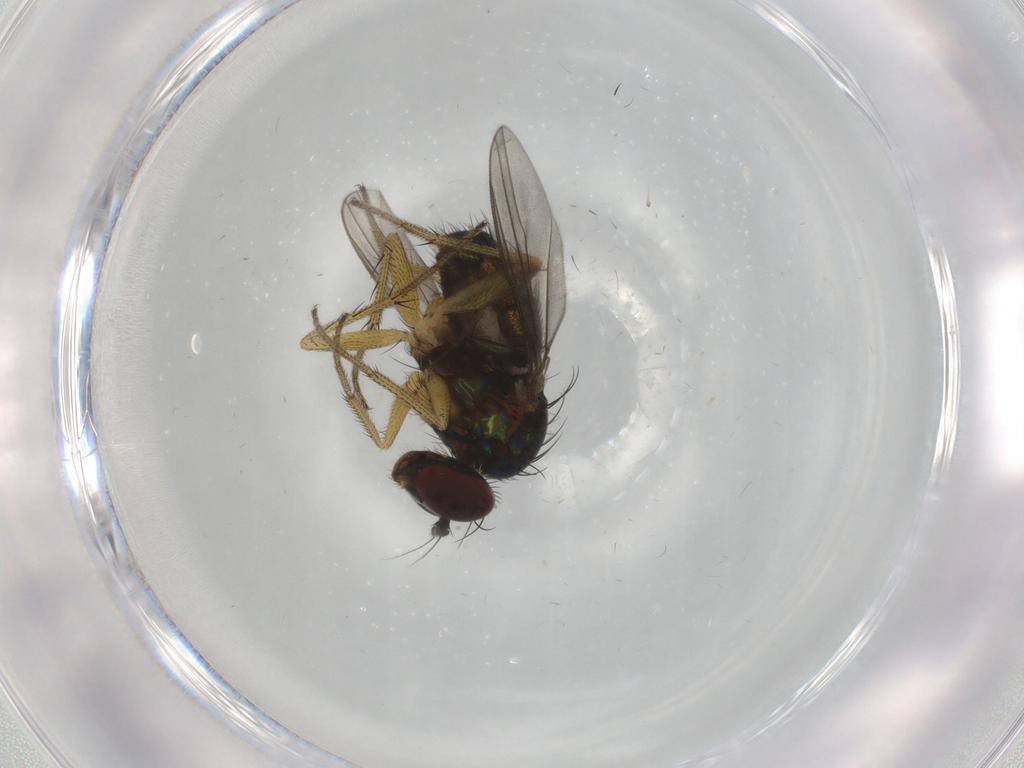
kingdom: Animalia
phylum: Arthropoda
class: Insecta
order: Diptera
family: Dolichopodidae
